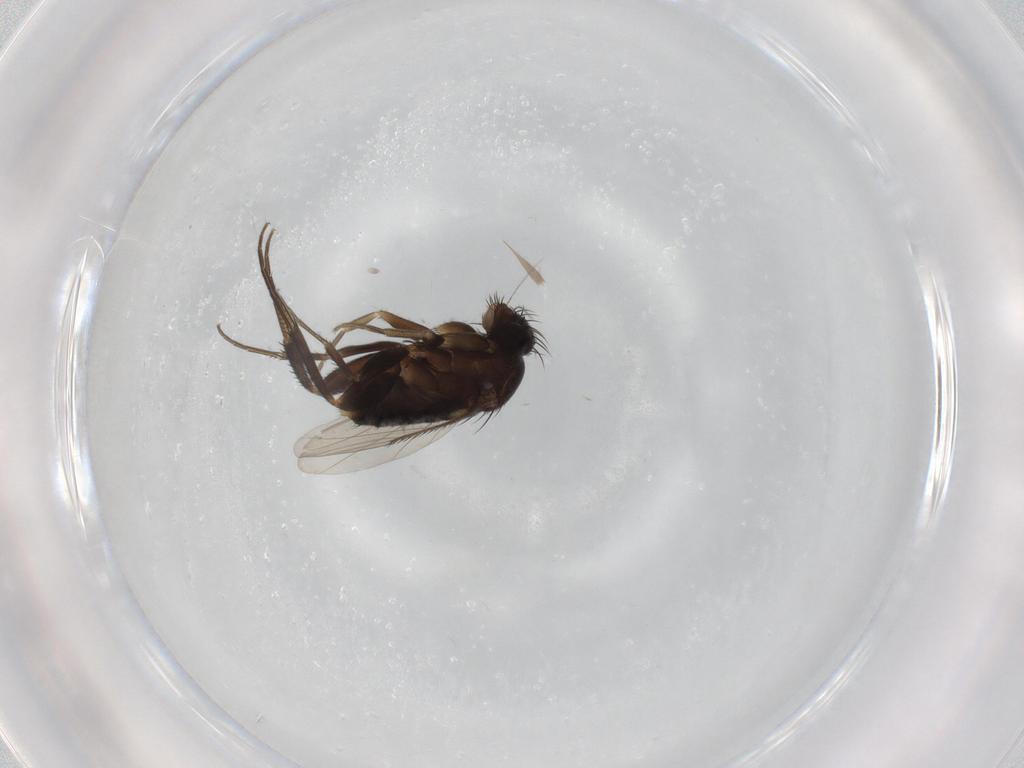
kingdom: Animalia
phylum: Arthropoda
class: Insecta
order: Diptera
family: Phoridae
